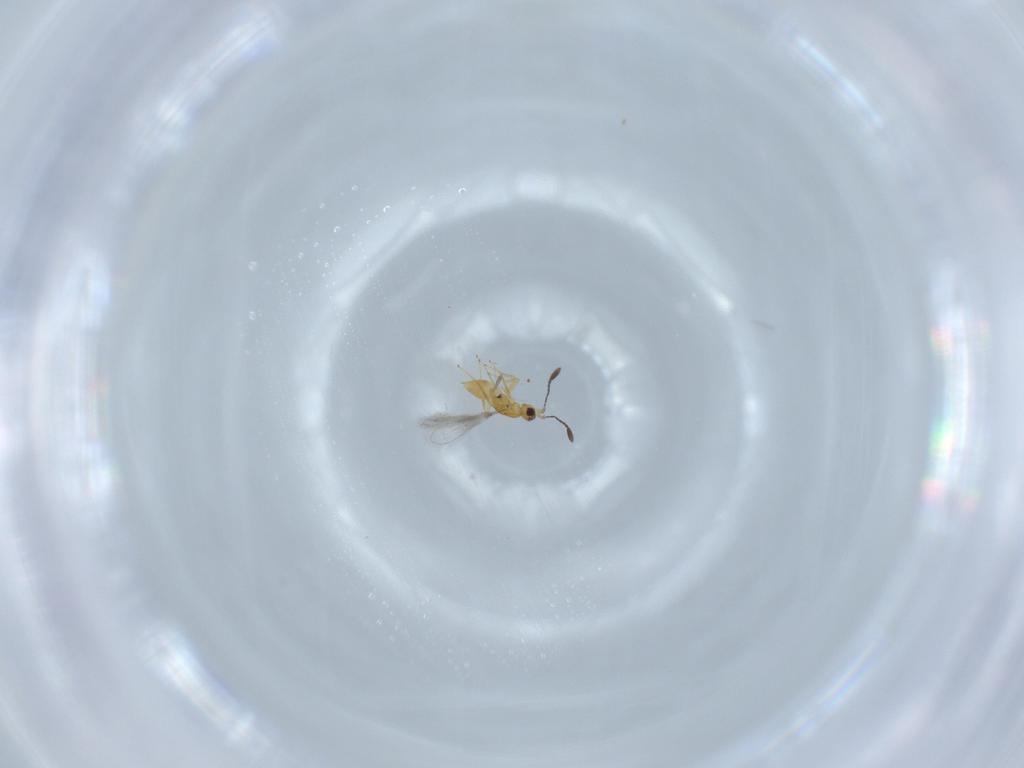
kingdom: Animalia
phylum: Arthropoda
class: Insecta
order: Hymenoptera
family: Mymaridae
